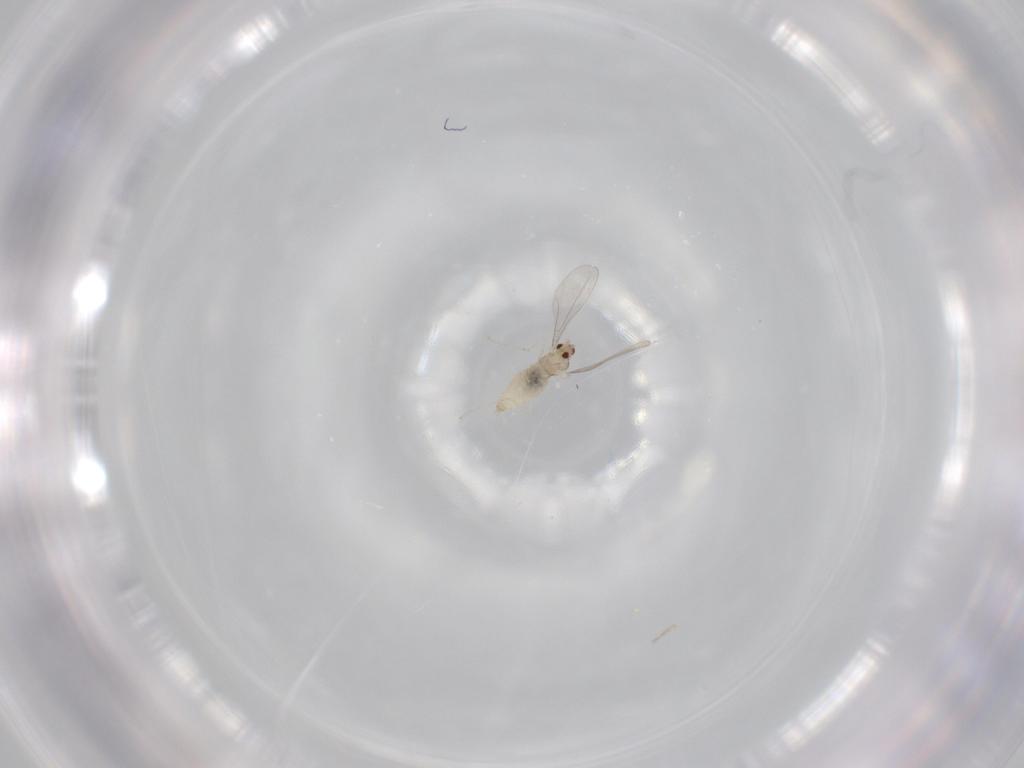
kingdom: Animalia
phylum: Arthropoda
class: Insecta
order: Diptera
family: Cecidomyiidae
